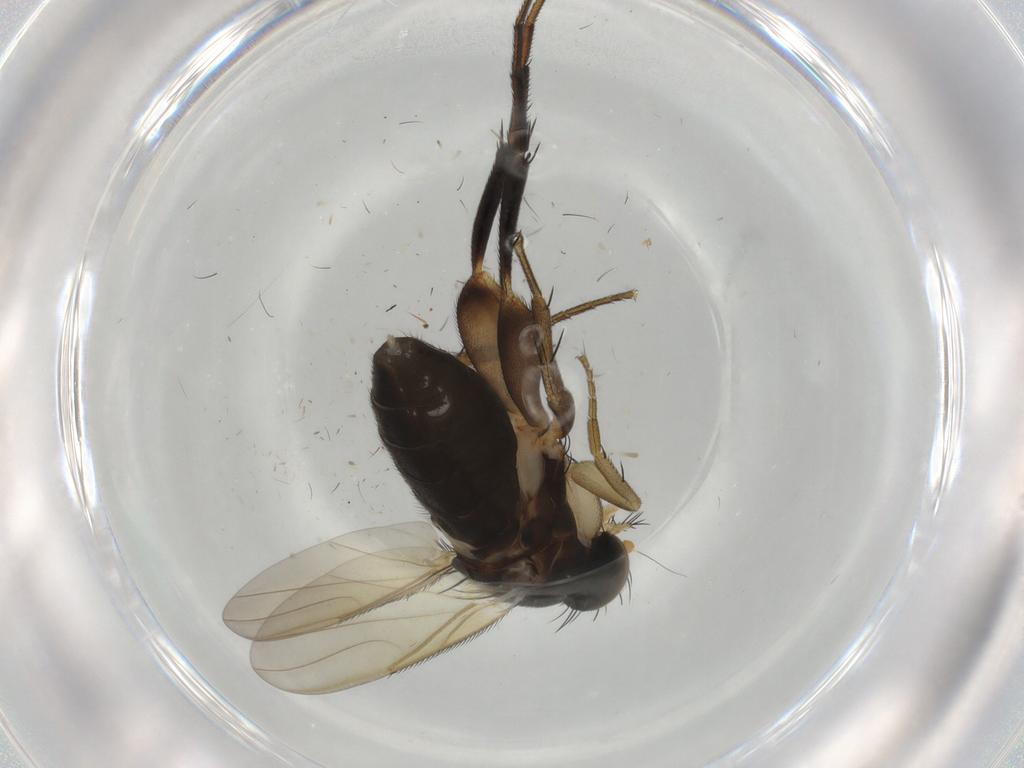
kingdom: Animalia
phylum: Arthropoda
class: Insecta
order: Diptera
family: Phoridae
